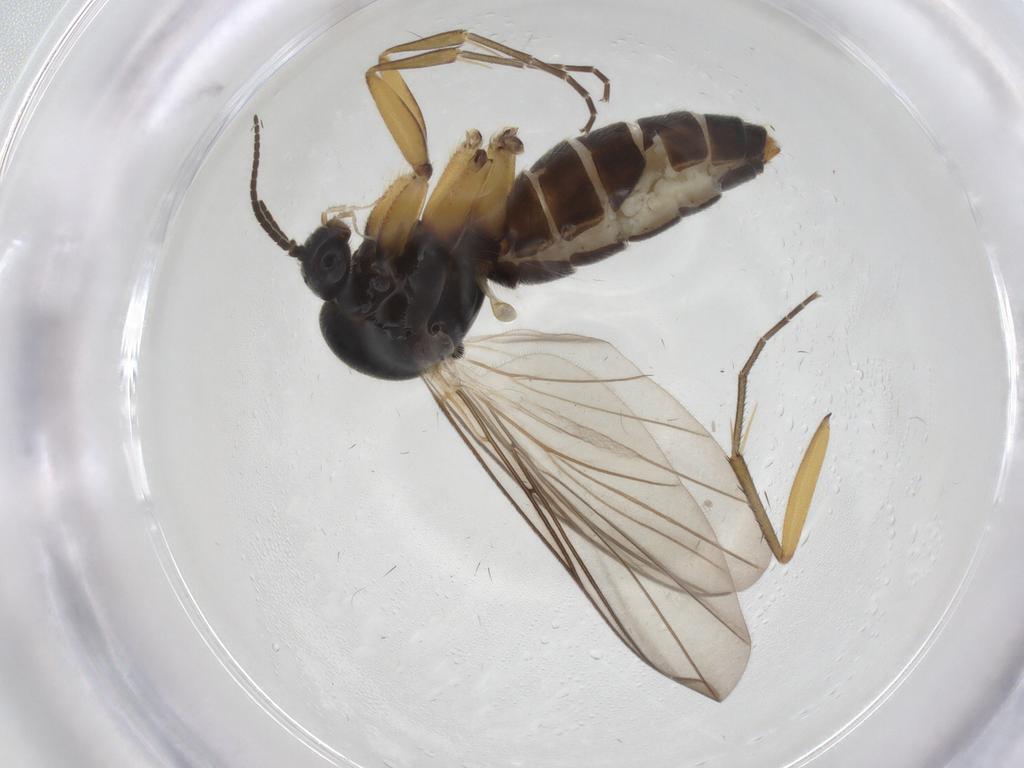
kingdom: Animalia
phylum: Arthropoda
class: Insecta
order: Diptera
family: Mycetophilidae
